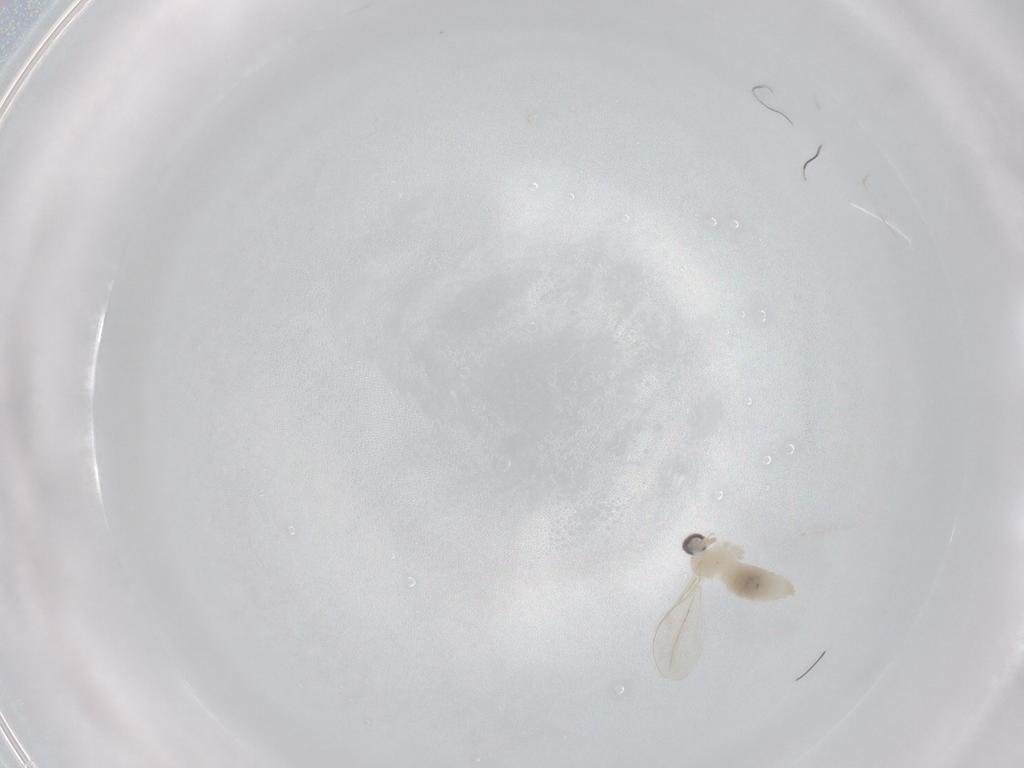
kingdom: Animalia
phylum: Arthropoda
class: Insecta
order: Diptera
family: Cecidomyiidae
